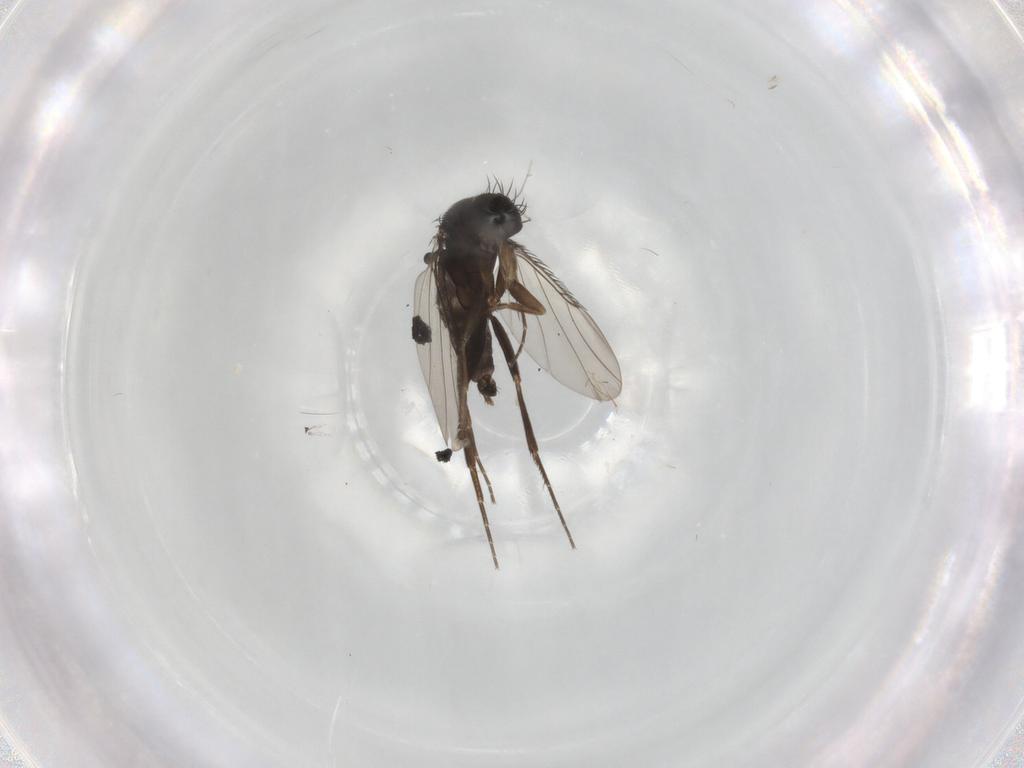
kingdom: Animalia
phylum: Arthropoda
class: Insecta
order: Diptera
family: Phoridae
